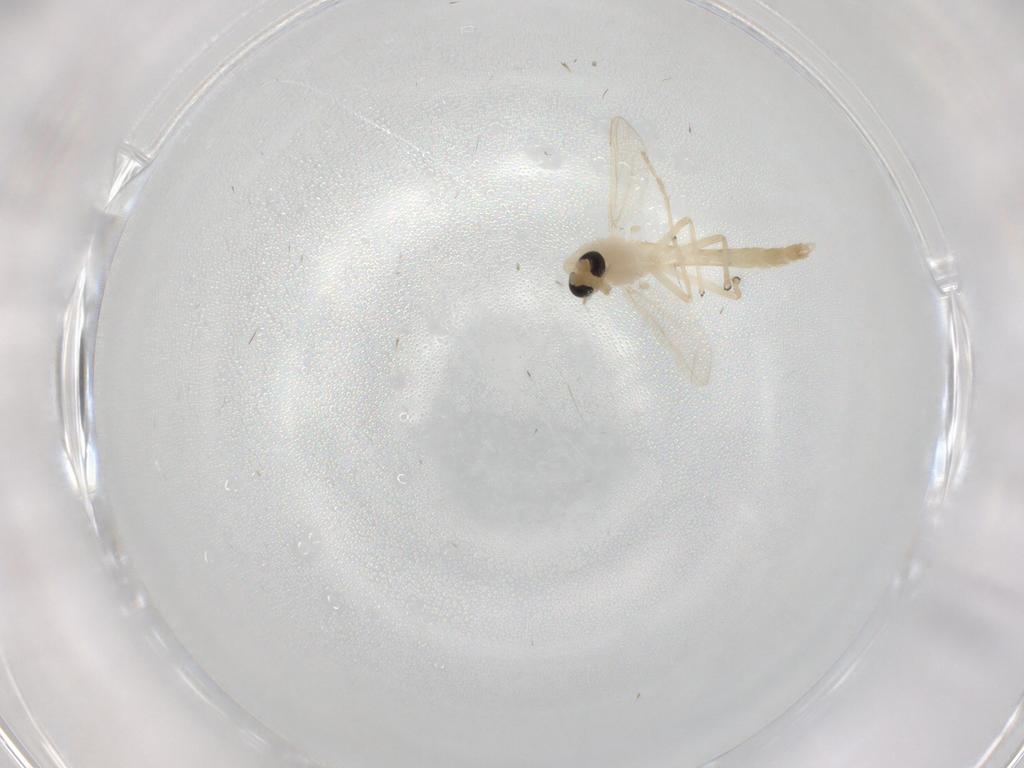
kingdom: Animalia
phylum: Arthropoda
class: Insecta
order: Diptera
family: Chironomidae
